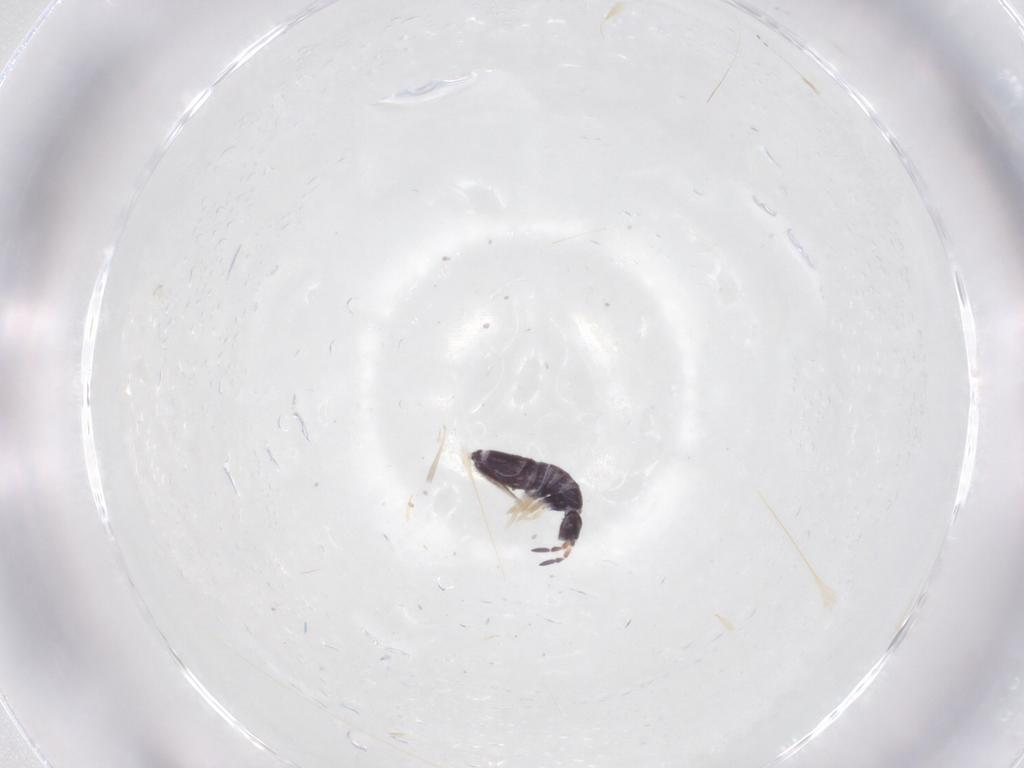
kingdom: Animalia
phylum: Arthropoda
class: Collembola
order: Entomobryomorpha
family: Entomobryidae
